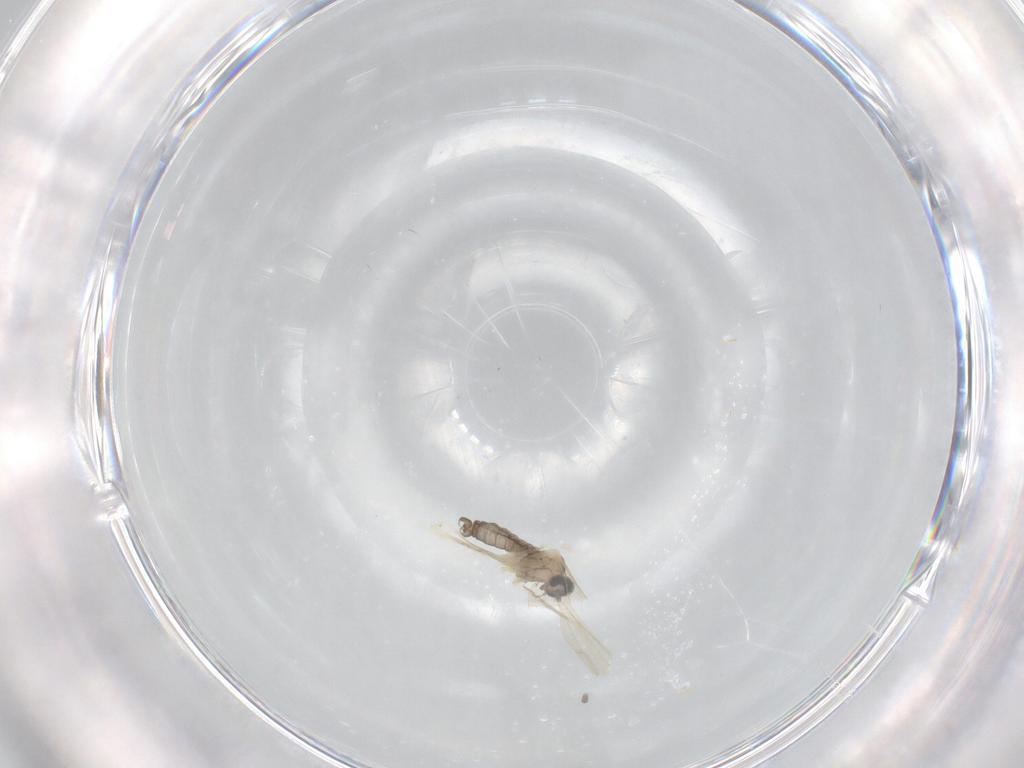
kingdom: Animalia
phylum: Arthropoda
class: Insecta
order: Diptera
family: Cecidomyiidae
